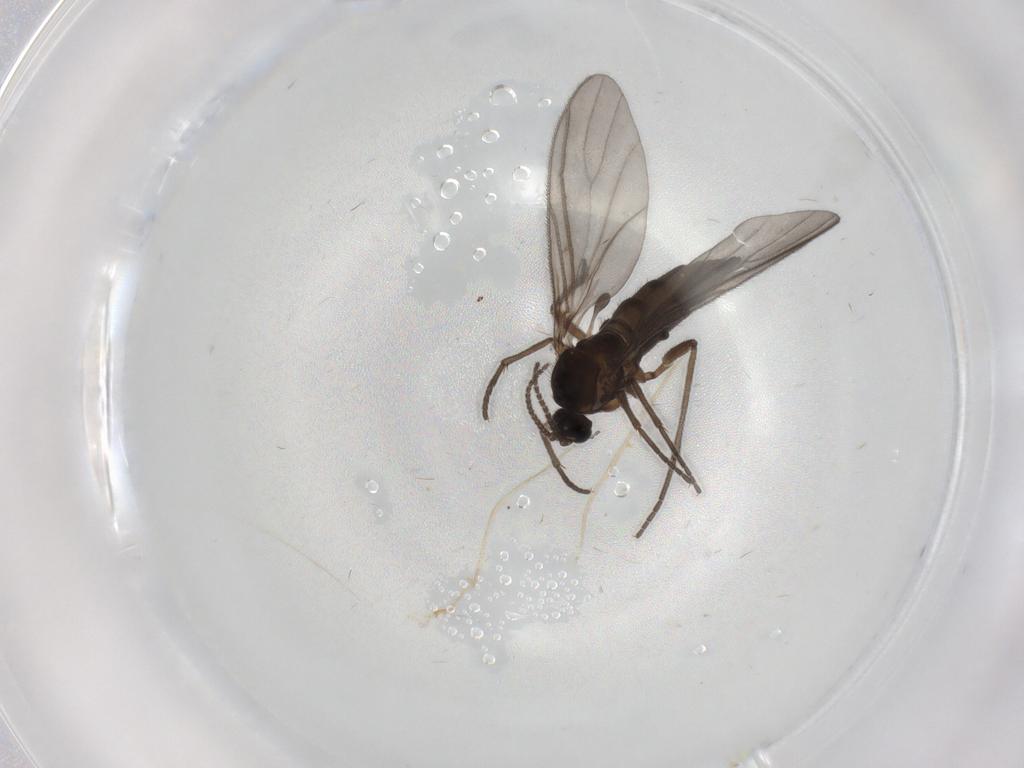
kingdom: Animalia
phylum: Arthropoda
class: Insecta
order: Diptera
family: Sciaridae
